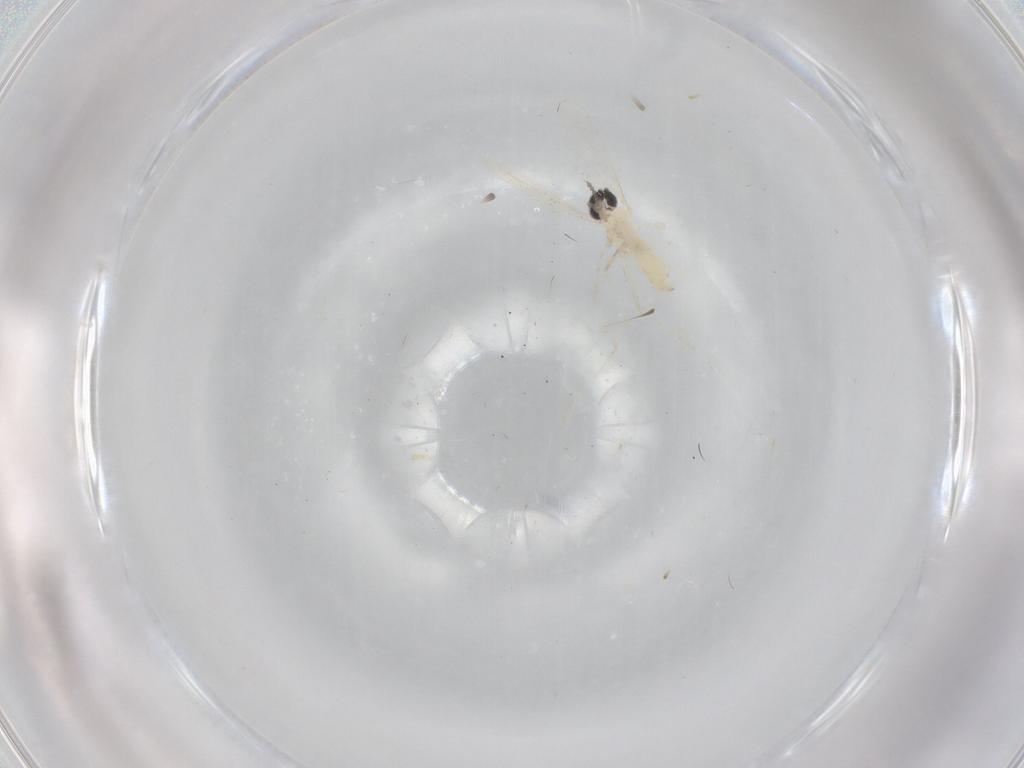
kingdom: Animalia
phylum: Arthropoda
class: Insecta
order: Diptera
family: Cecidomyiidae
